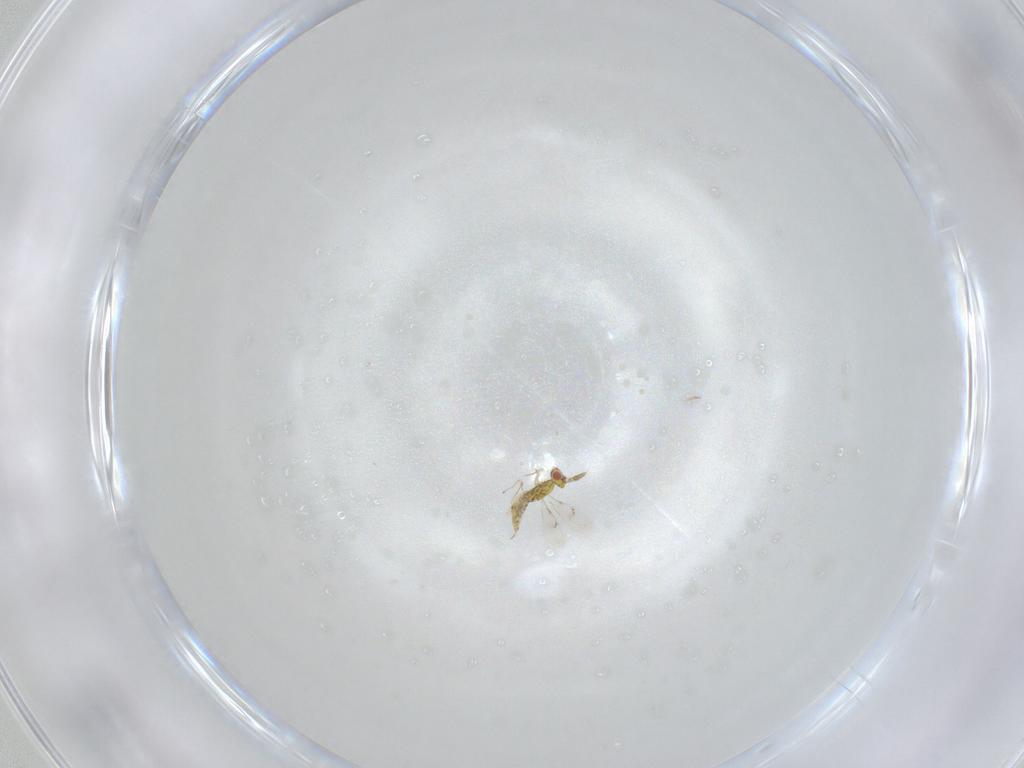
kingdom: Animalia
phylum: Arthropoda
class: Insecta
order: Hymenoptera
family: Eulophidae
